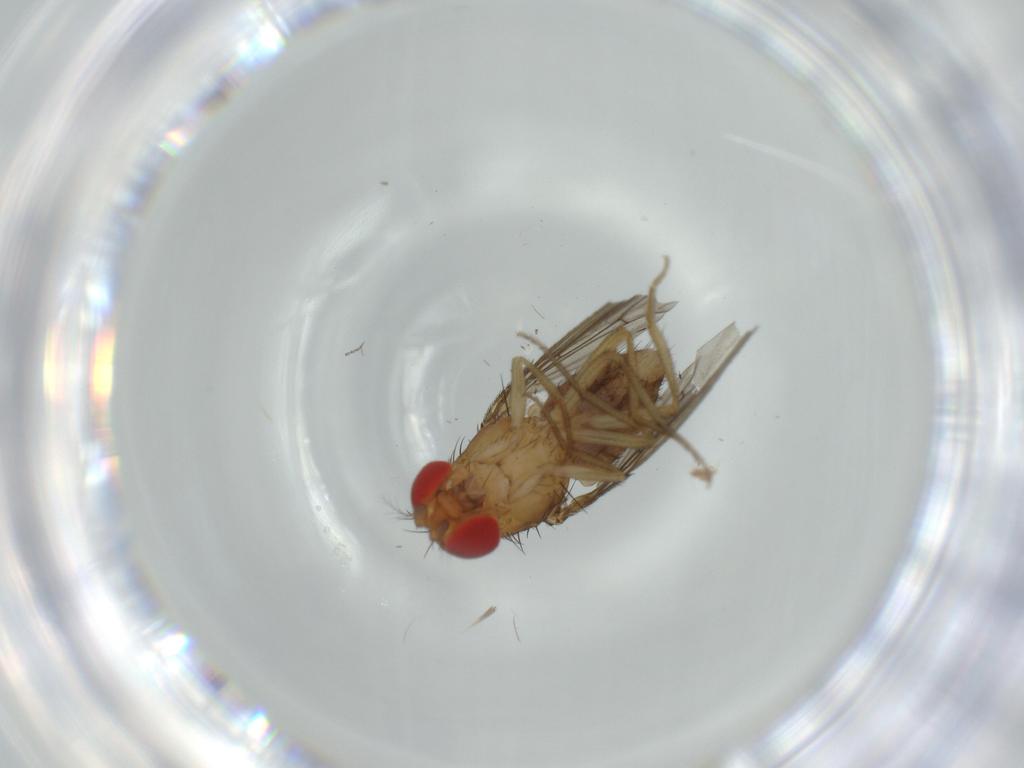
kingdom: Animalia
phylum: Arthropoda
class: Insecta
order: Diptera
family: Drosophilidae
